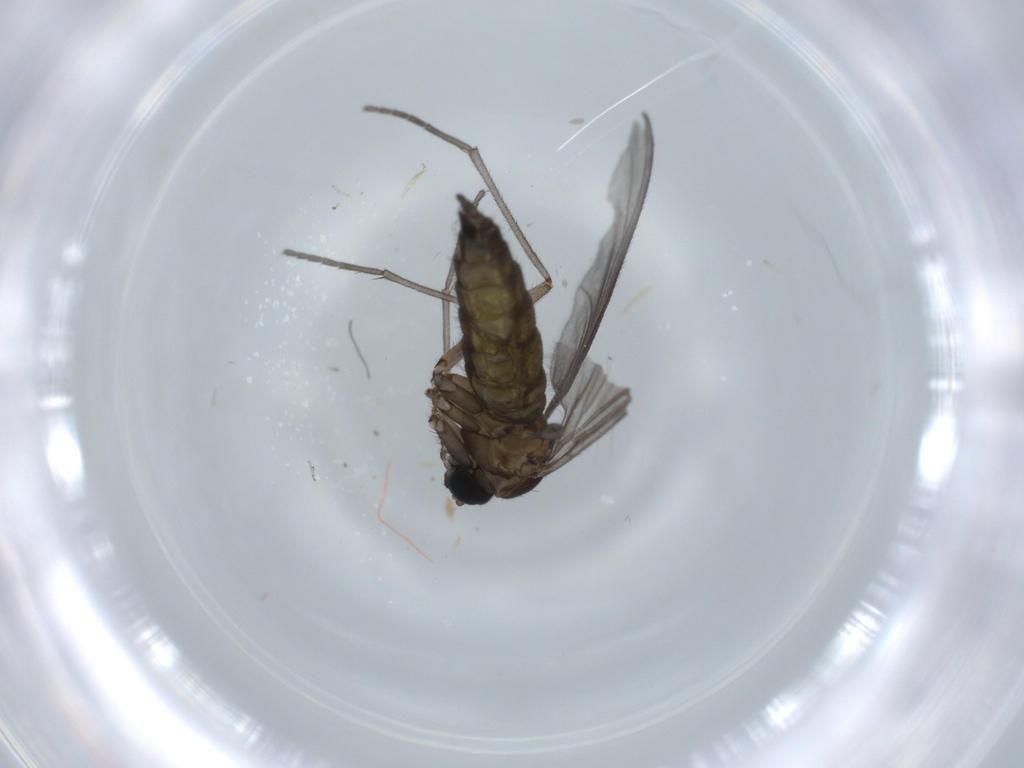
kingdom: Animalia
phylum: Arthropoda
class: Insecta
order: Diptera
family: Sciaridae
